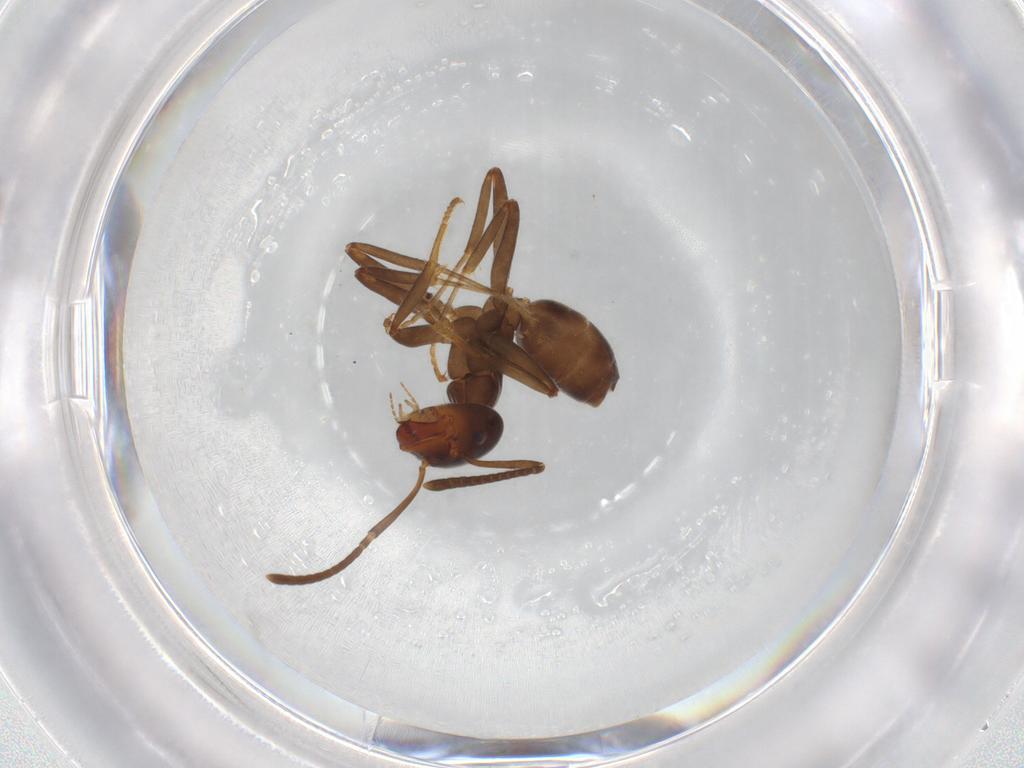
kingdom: Animalia
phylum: Arthropoda
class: Insecta
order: Hymenoptera
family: Formicidae
